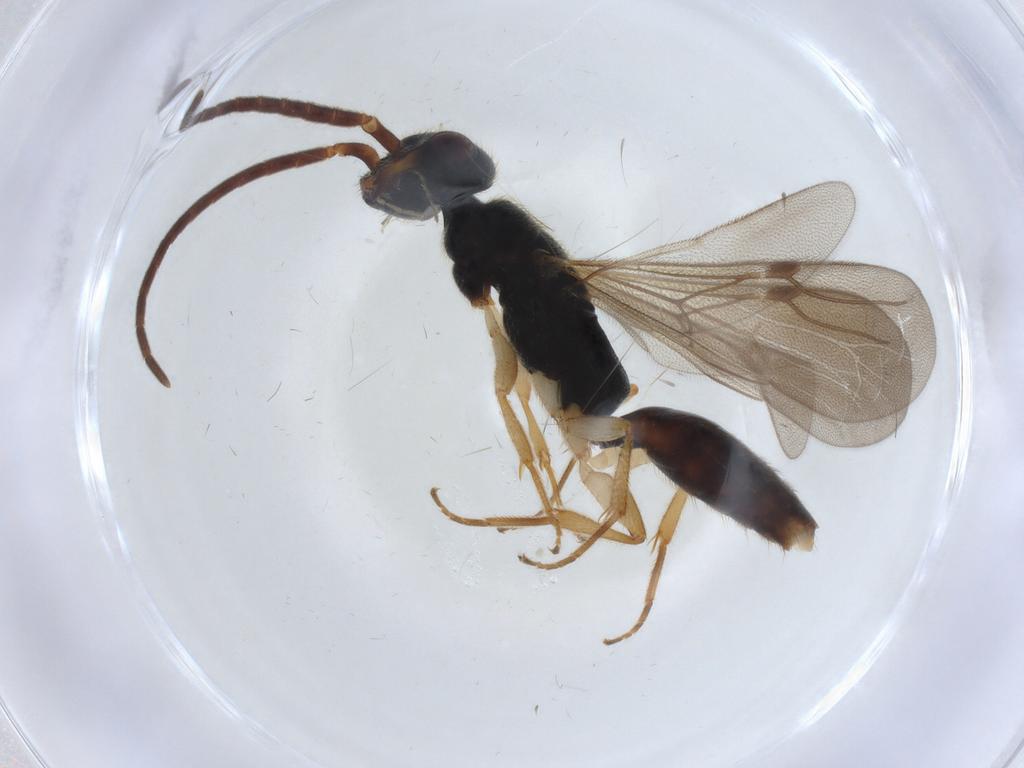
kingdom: Animalia
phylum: Arthropoda
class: Insecta
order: Hymenoptera
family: Bethylidae
